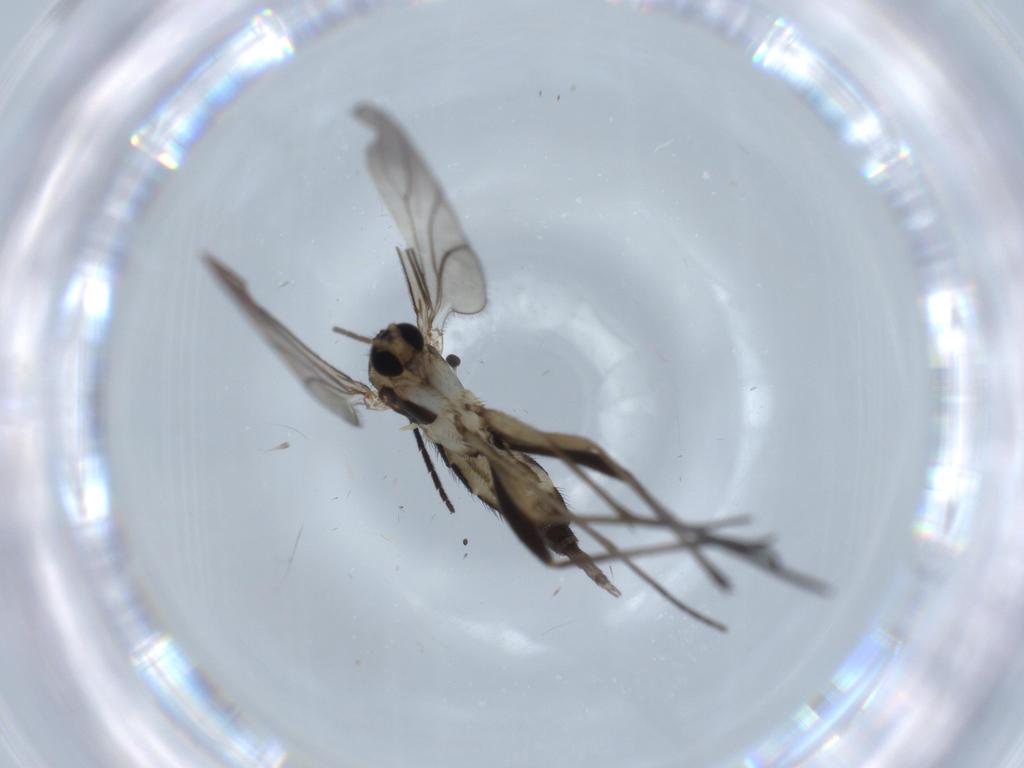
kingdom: Animalia
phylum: Arthropoda
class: Insecta
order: Diptera
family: Sciaridae
